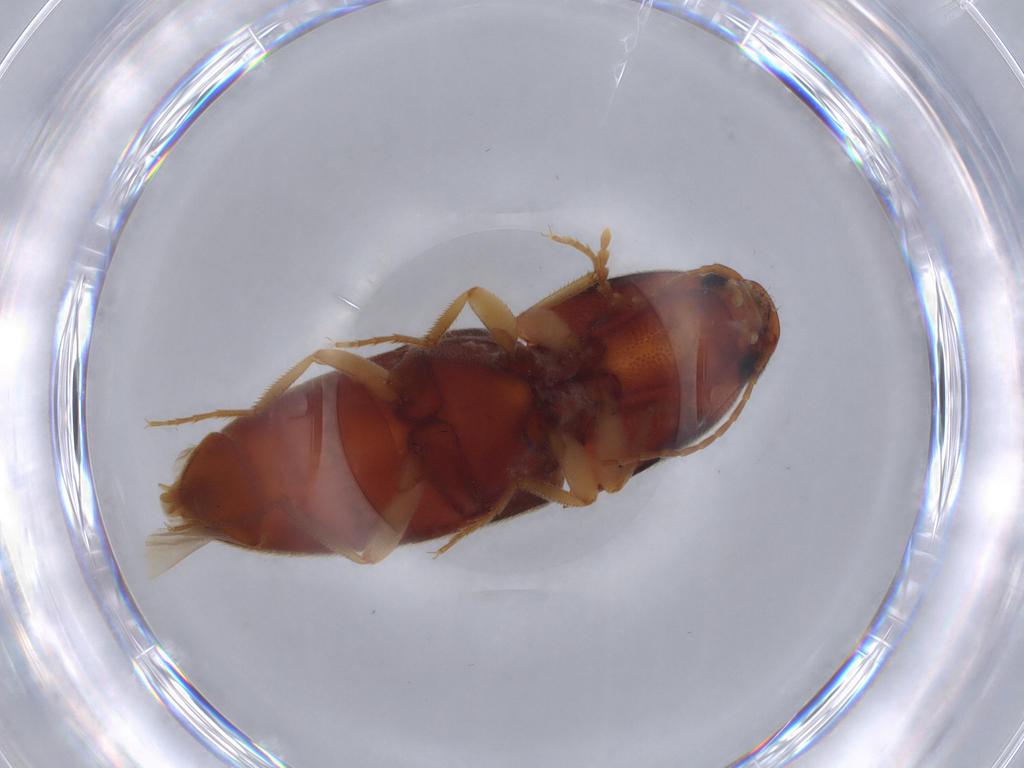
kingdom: Animalia
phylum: Arthropoda
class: Insecta
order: Coleoptera
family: Elateridae
